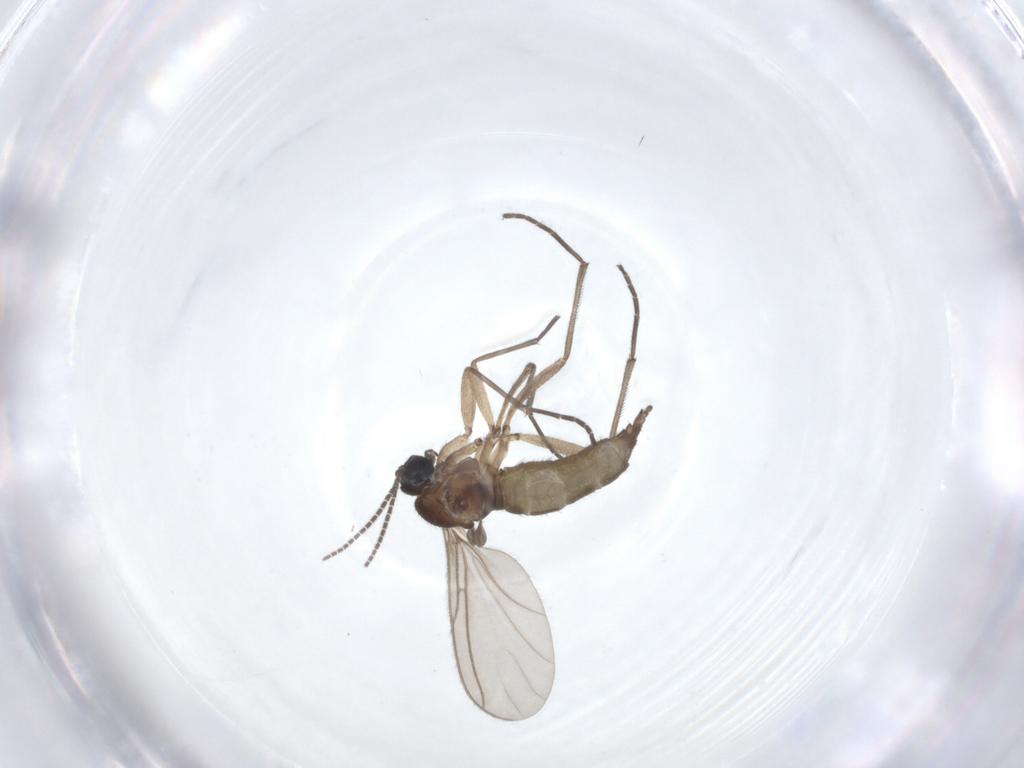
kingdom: Animalia
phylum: Arthropoda
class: Insecta
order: Diptera
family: Sciaridae
